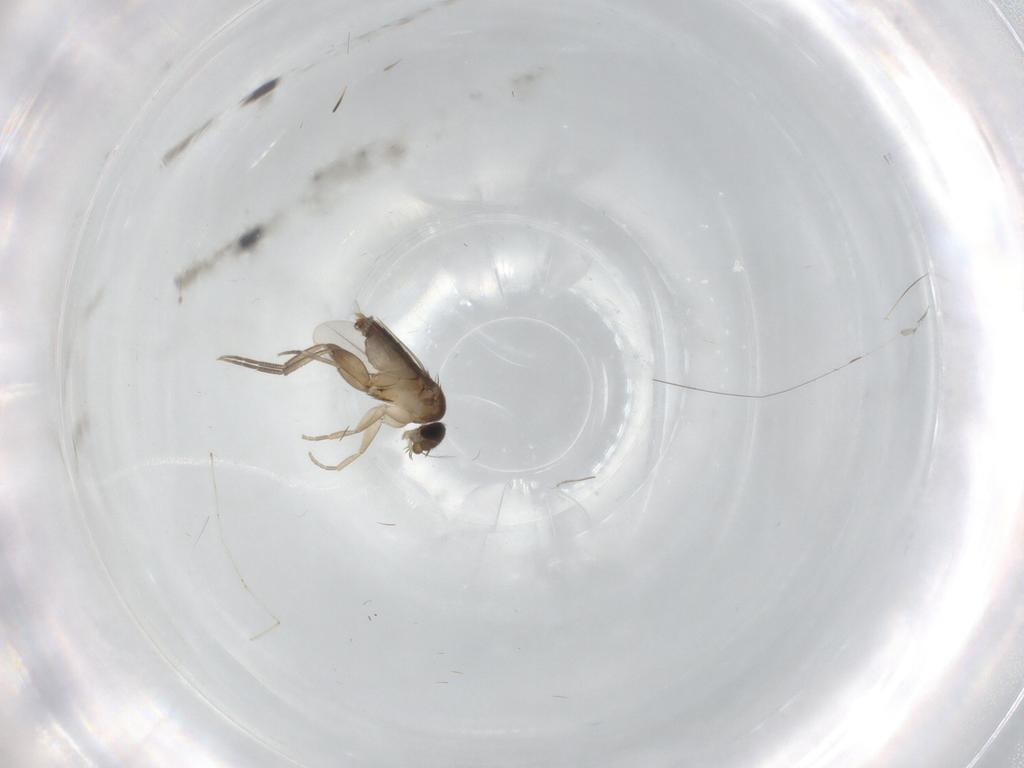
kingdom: Animalia
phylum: Arthropoda
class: Insecta
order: Diptera
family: Cecidomyiidae
